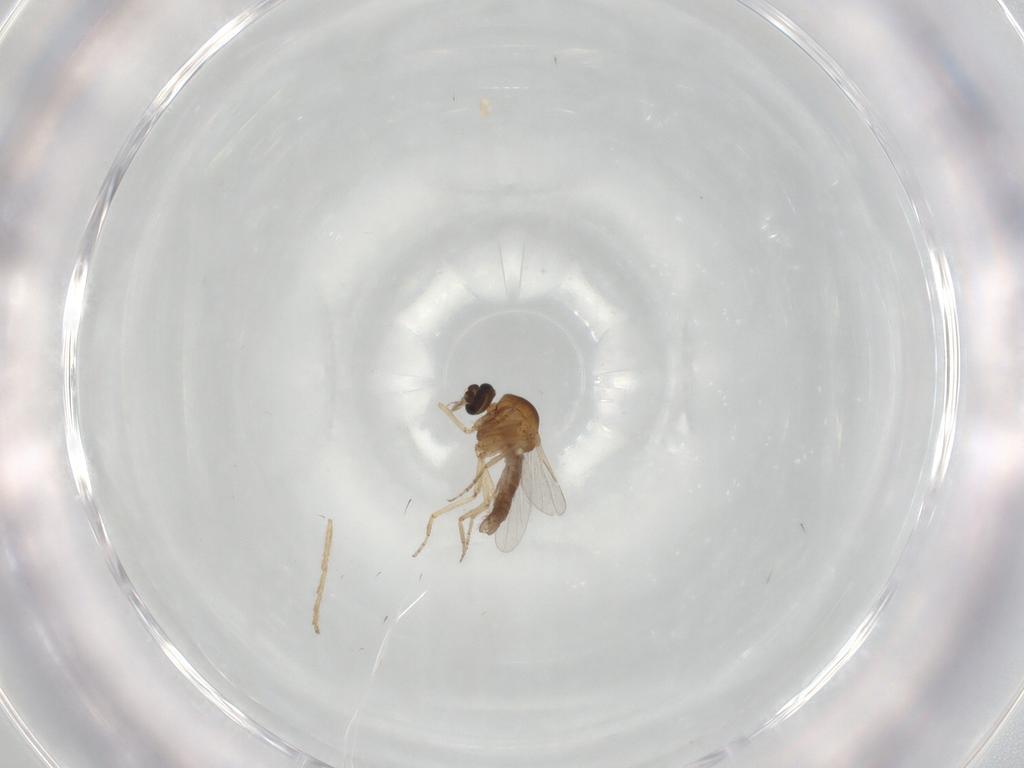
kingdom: Animalia
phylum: Arthropoda
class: Insecta
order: Diptera
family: Ceratopogonidae
